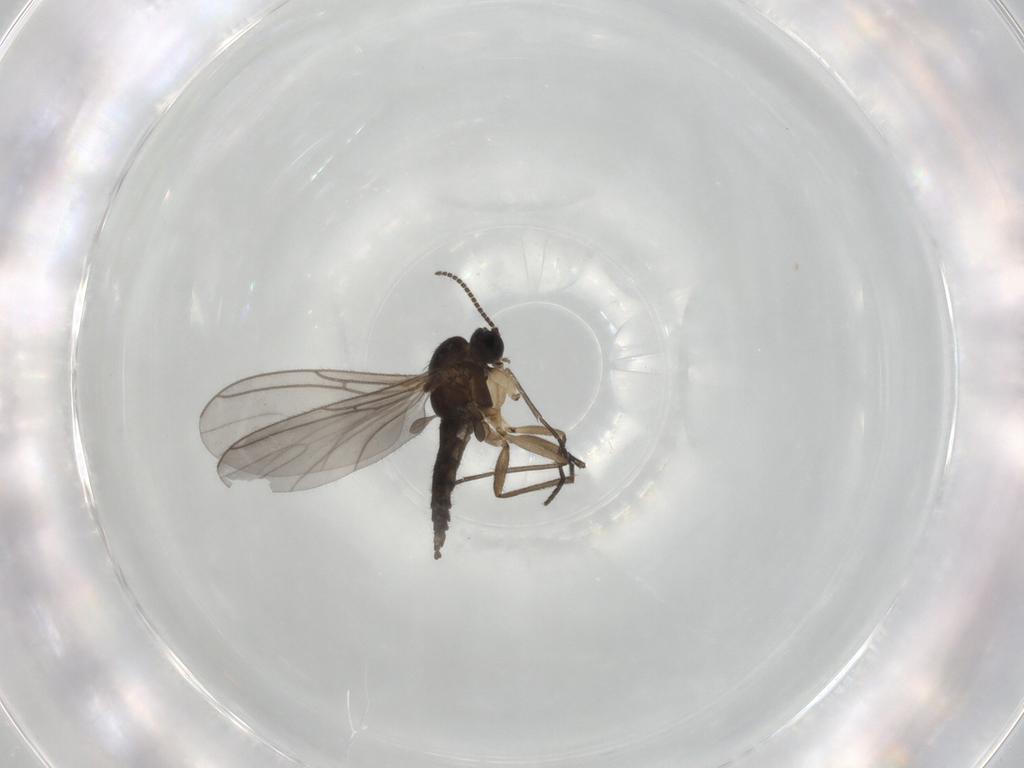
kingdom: Animalia
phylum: Arthropoda
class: Insecta
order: Diptera
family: Sciaridae
